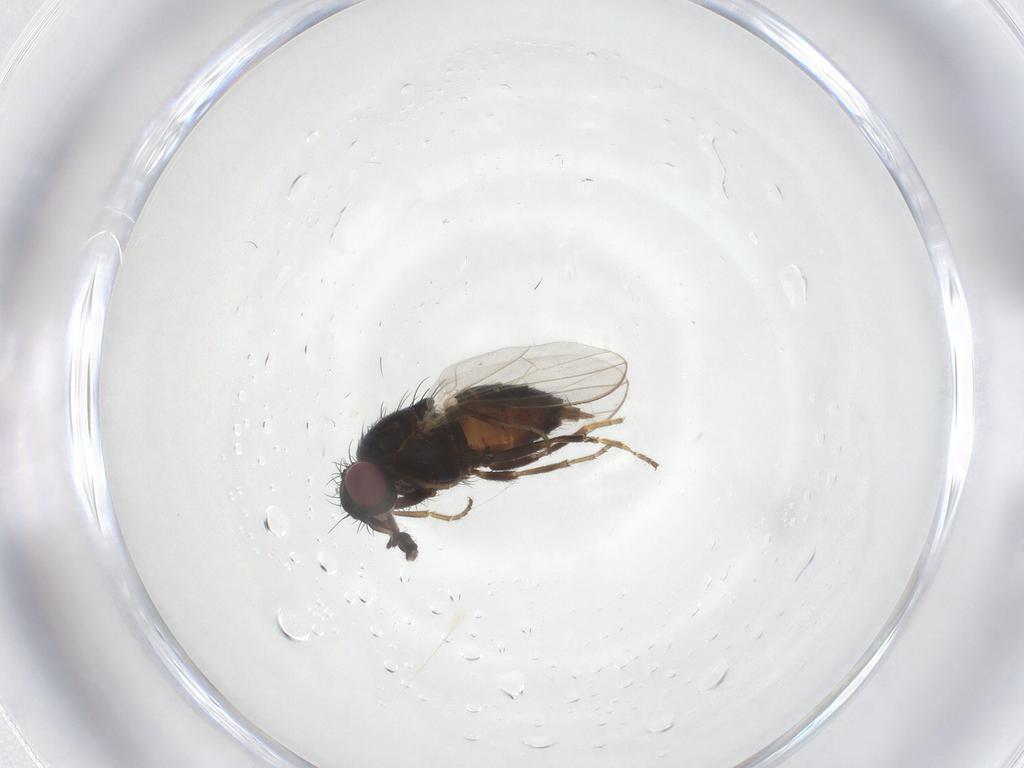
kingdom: Animalia
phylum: Arthropoda
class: Insecta
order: Diptera
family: Carnidae
